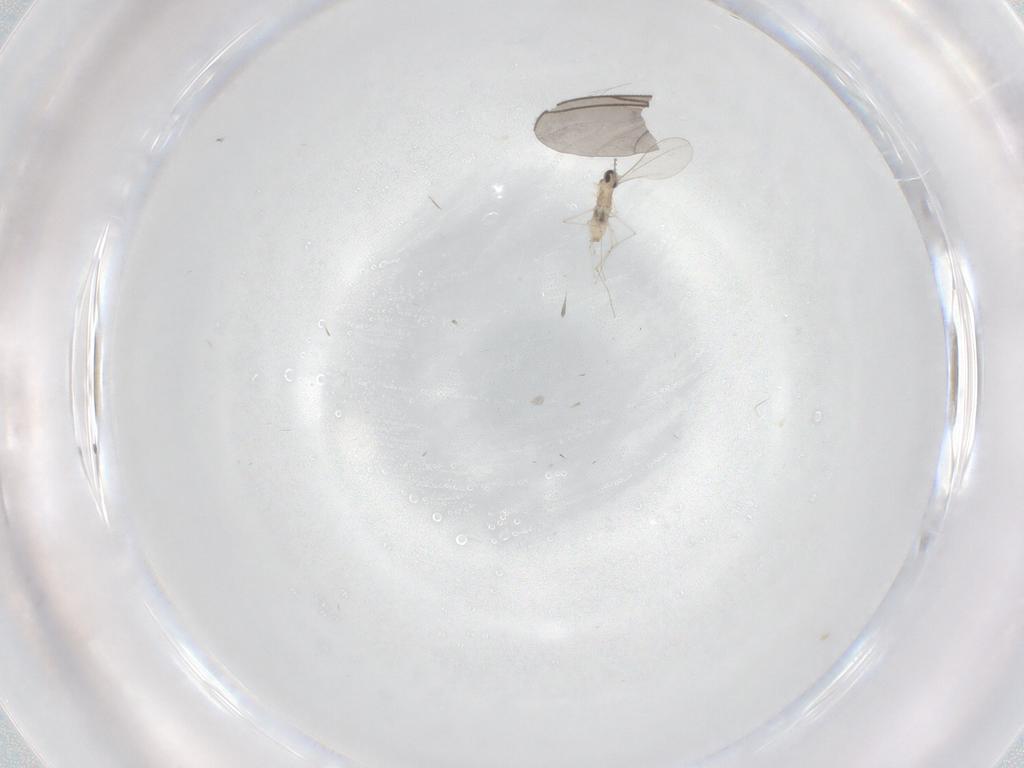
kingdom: Animalia
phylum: Arthropoda
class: Insecta
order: Diptera
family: Cecidomyiidae
